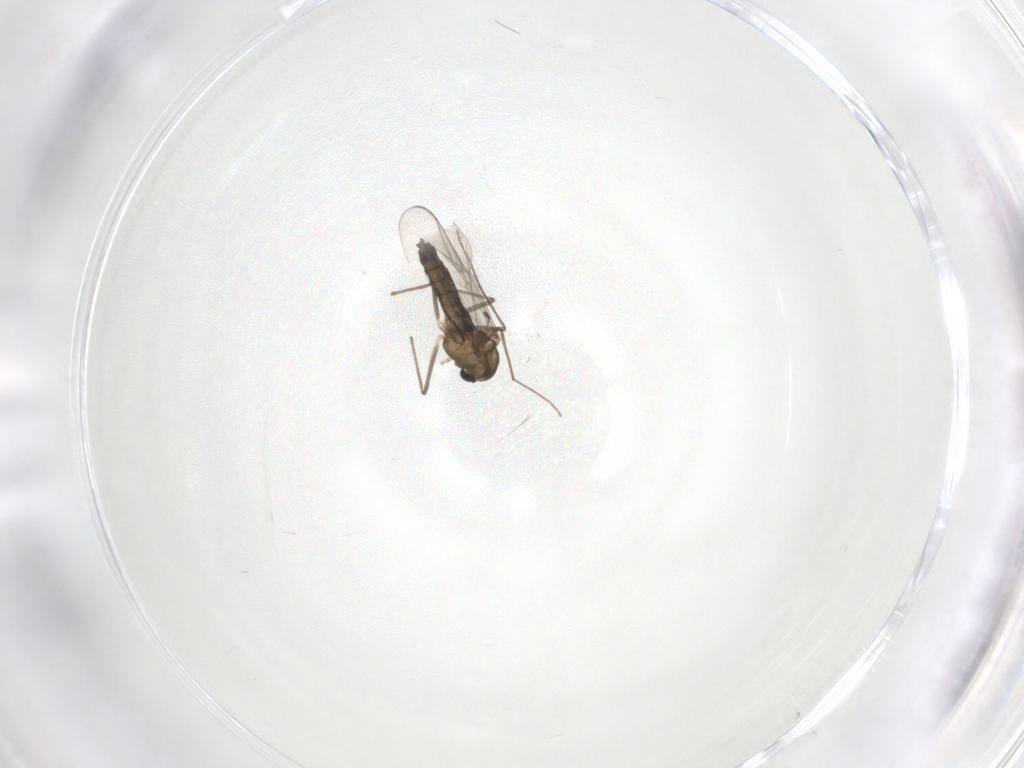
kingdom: Animalia
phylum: Arthropoda
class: Insecta
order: Diptera
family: Chironomidae
